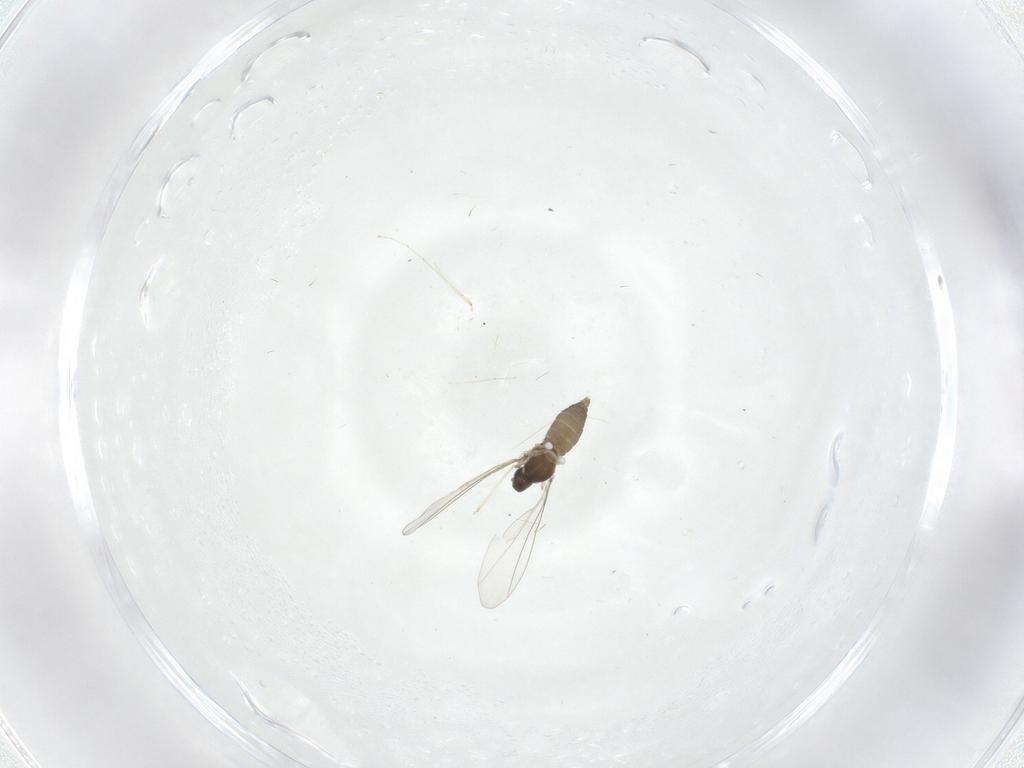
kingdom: Animalia
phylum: Arthropoda
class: Insecta
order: Diptera
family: Cecidomyiidae
